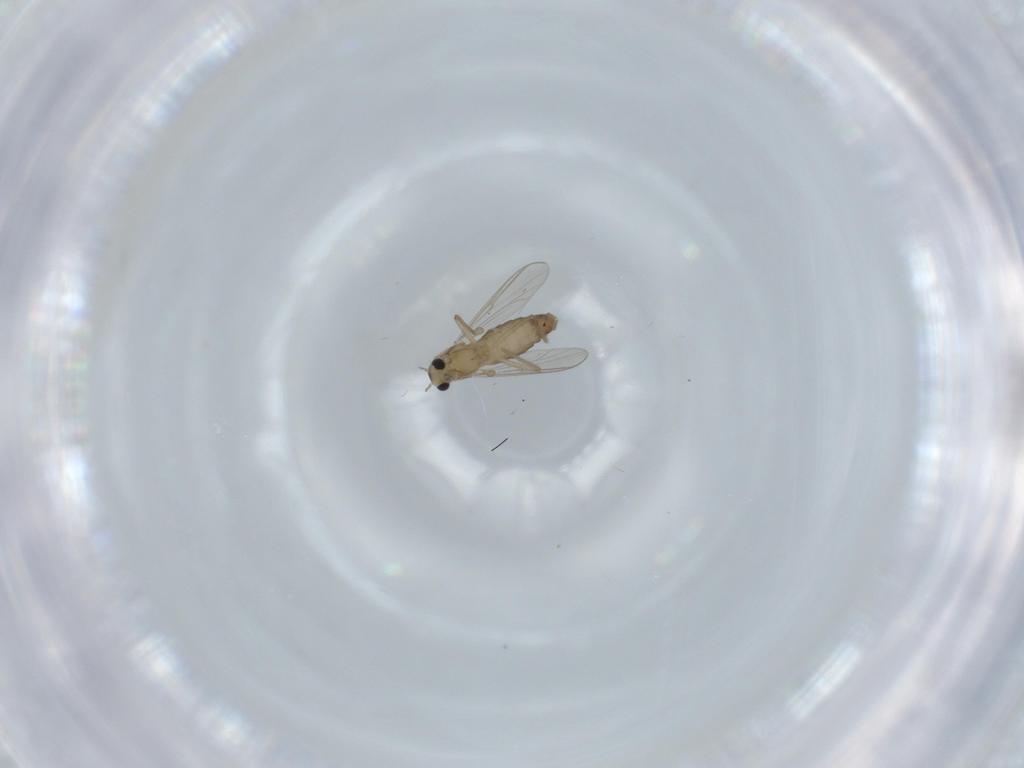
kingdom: Animalia
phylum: Arthropoda
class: Insecta
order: Diptera
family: Chironomidae
